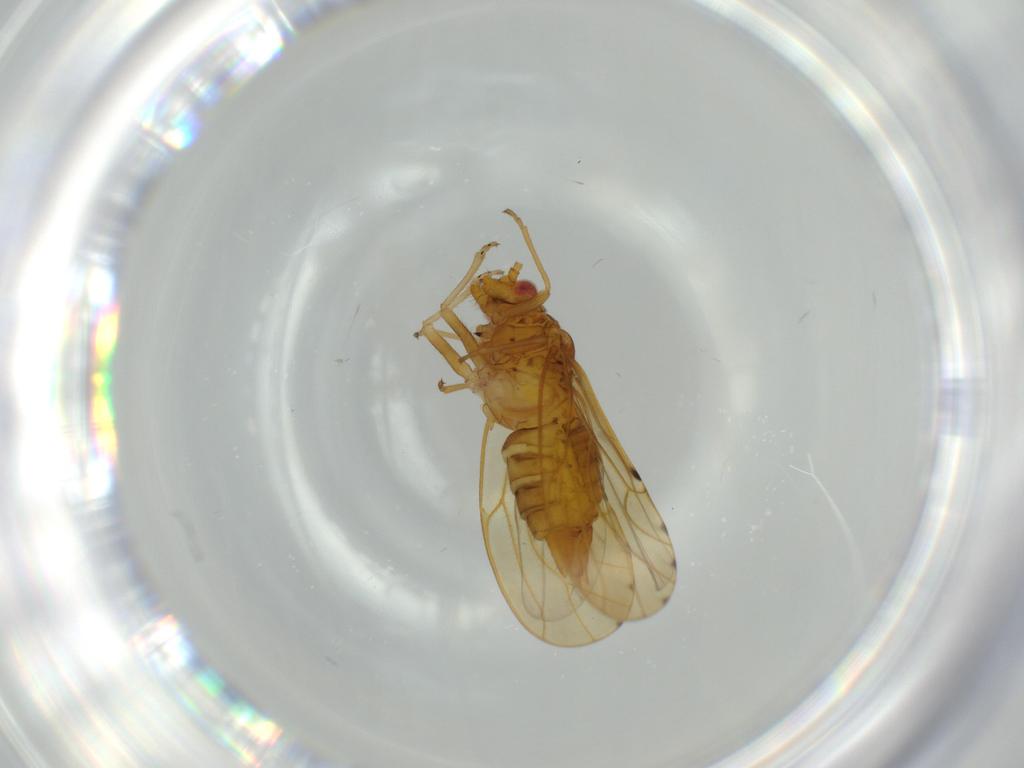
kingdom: Animalia
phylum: Arthropoda
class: Insecta
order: Hemiptera
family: Psylloidea_incertae_sedis
